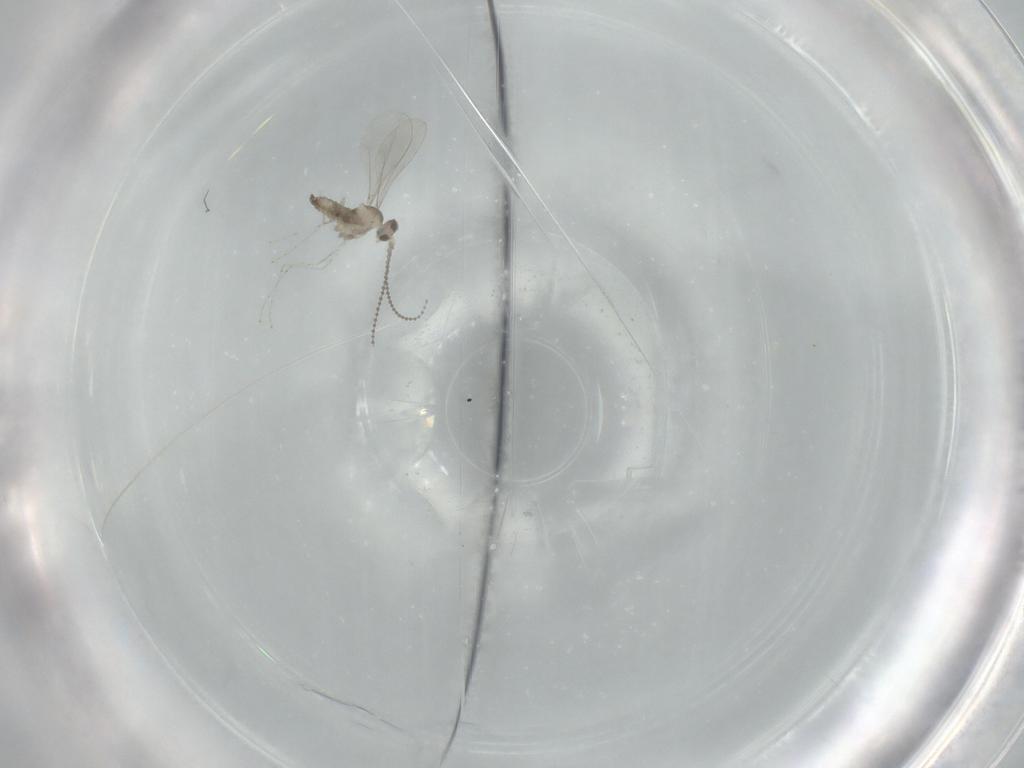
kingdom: Animalia
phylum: Arthropoda
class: Insecta
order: Diptera
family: Cecidomyiidae
